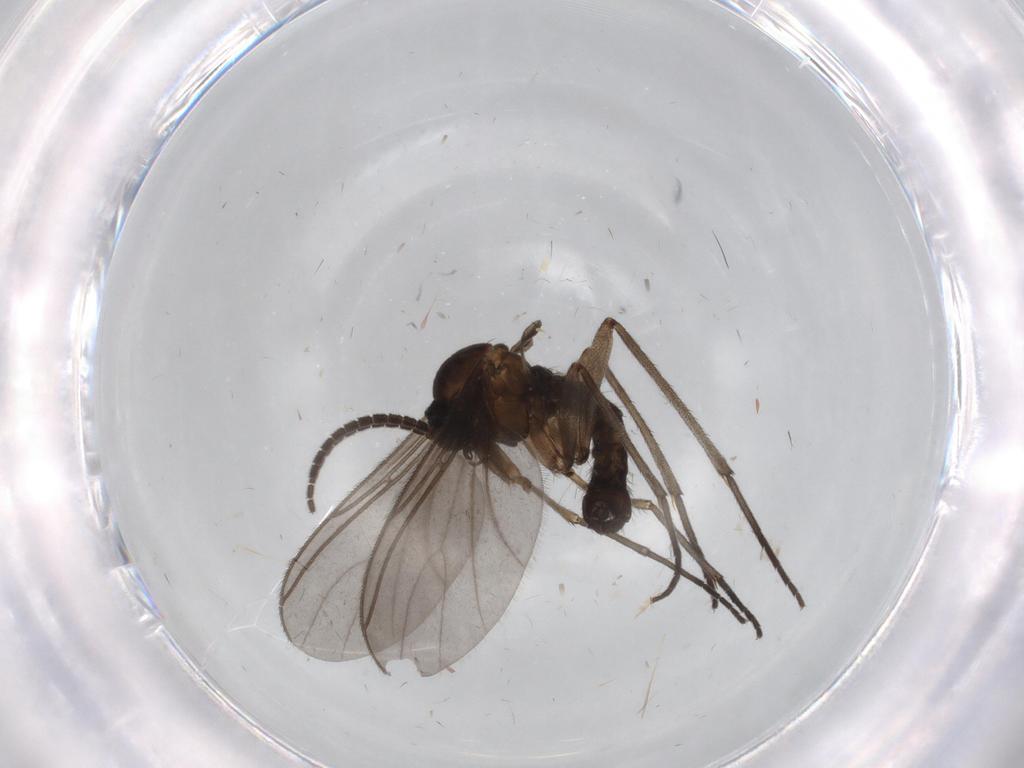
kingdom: Animalia
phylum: Arthropoda
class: Insecta
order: Diptera
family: Sciaridae
